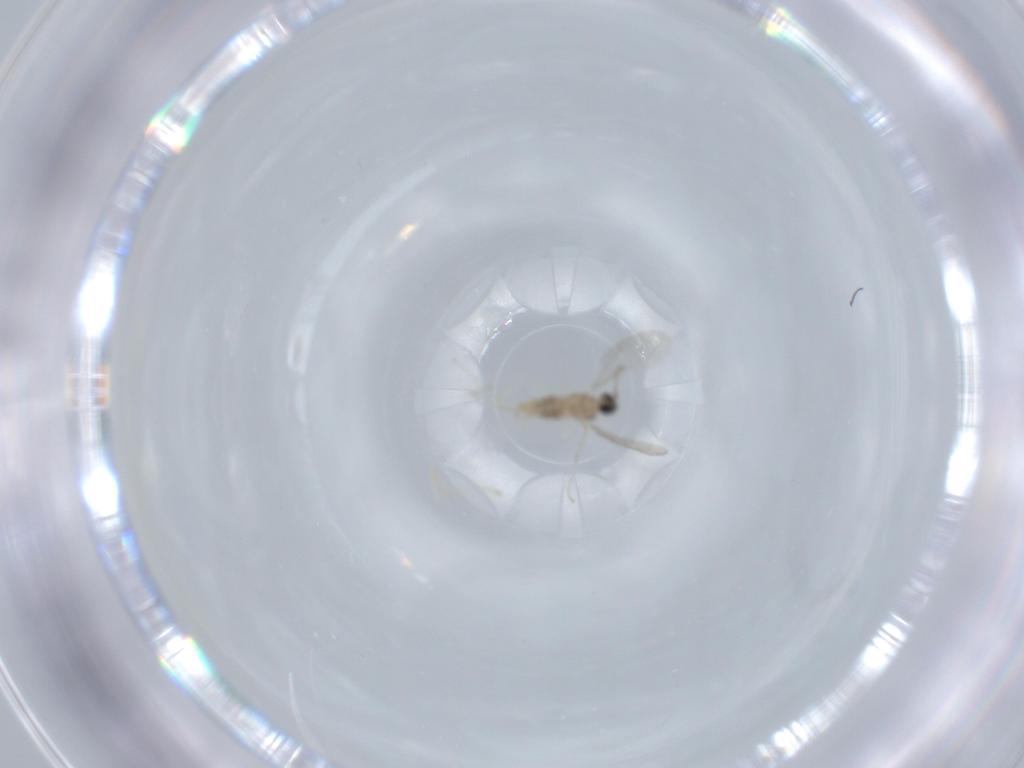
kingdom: Animalia
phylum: Arthropoda
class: Insecta
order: Diptera
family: Cecidomyiidae
